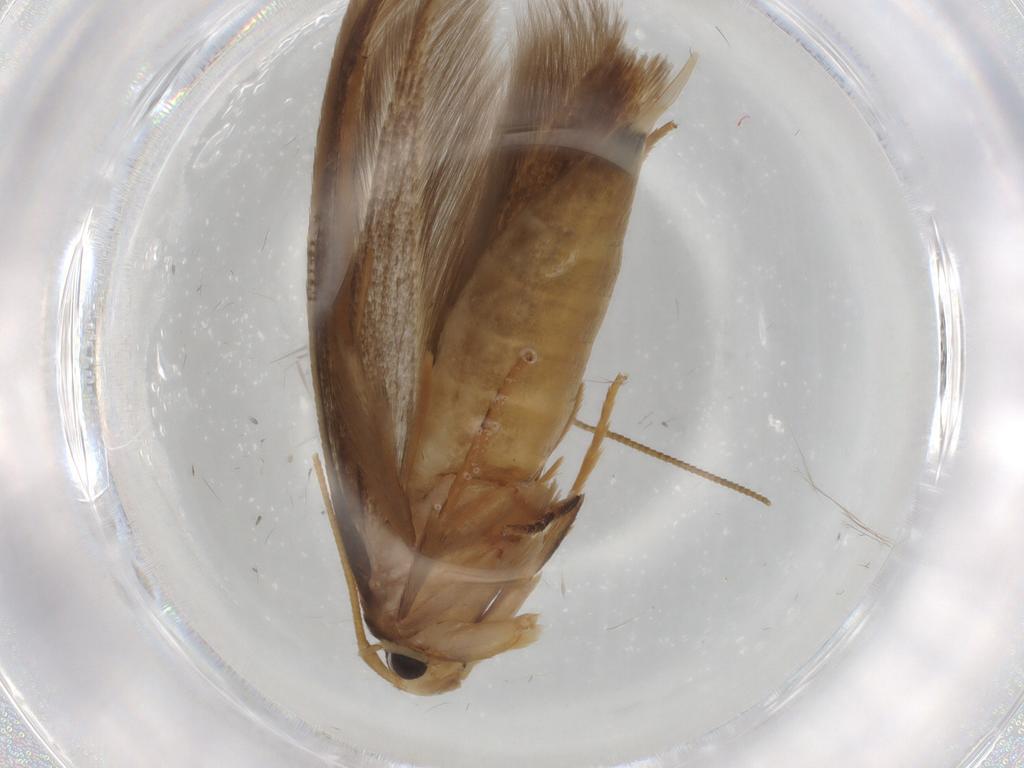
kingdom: Animalia
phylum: Arthropoda
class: Insecta
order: Lepidoptera
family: Tineidae
